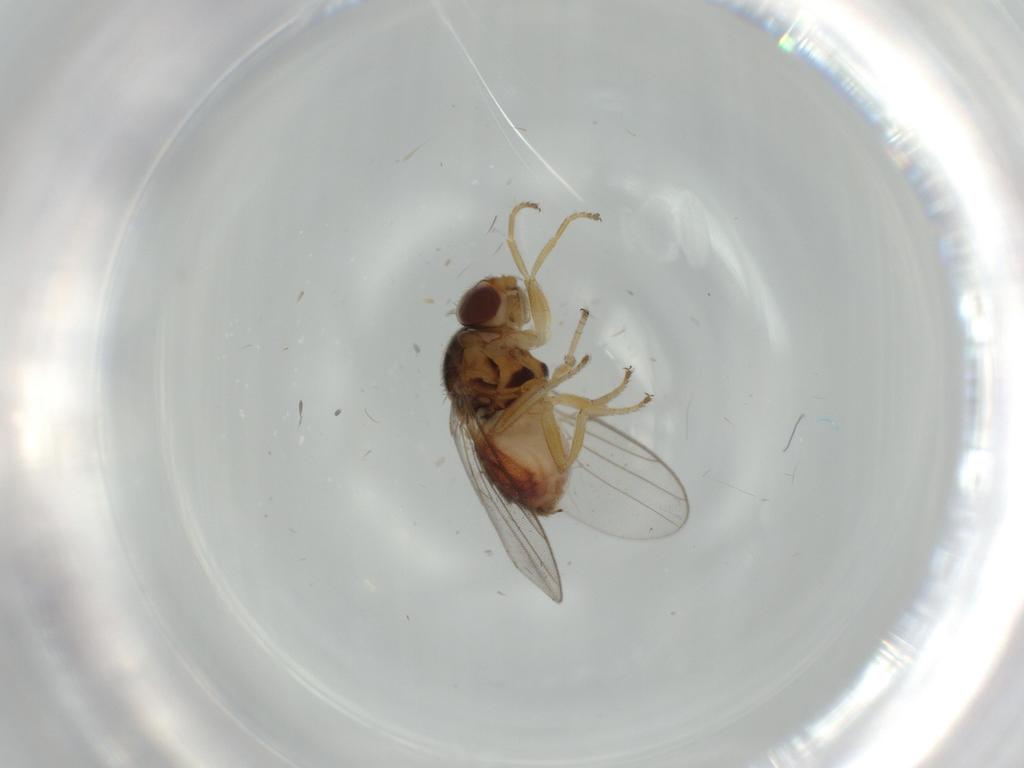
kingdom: Animalia
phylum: Arthropoda
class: Insecta
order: Diptera
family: Chloropidae
